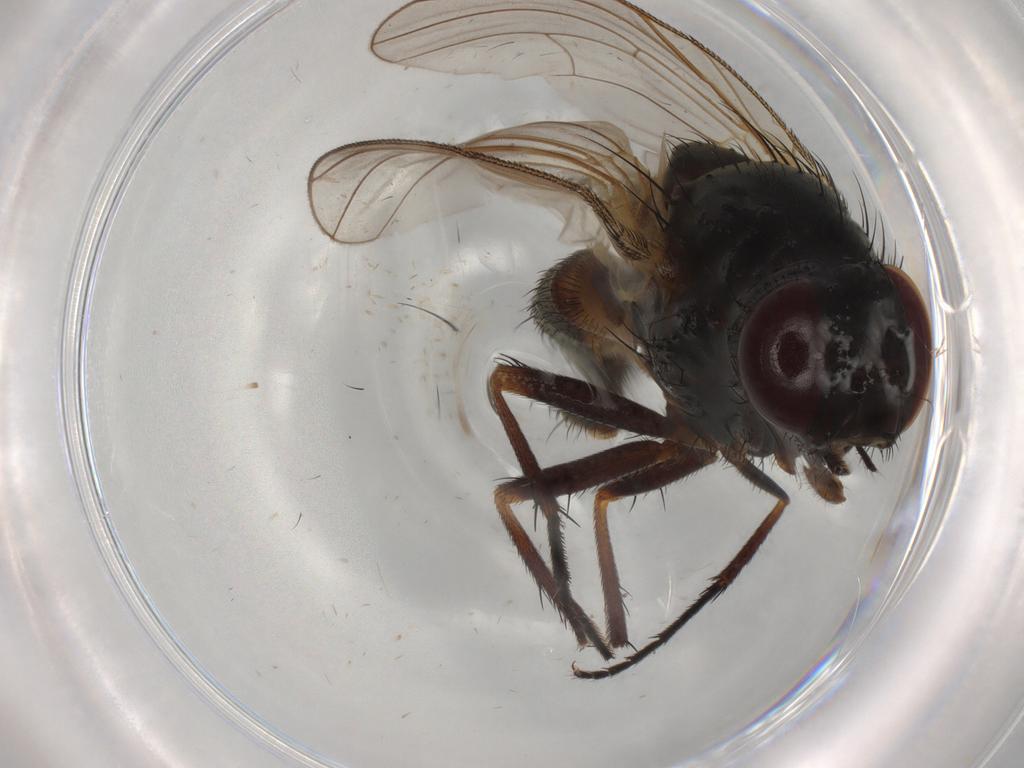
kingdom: Animalia
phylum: Arthropoda
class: Insecta
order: Diptera
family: Fannia
